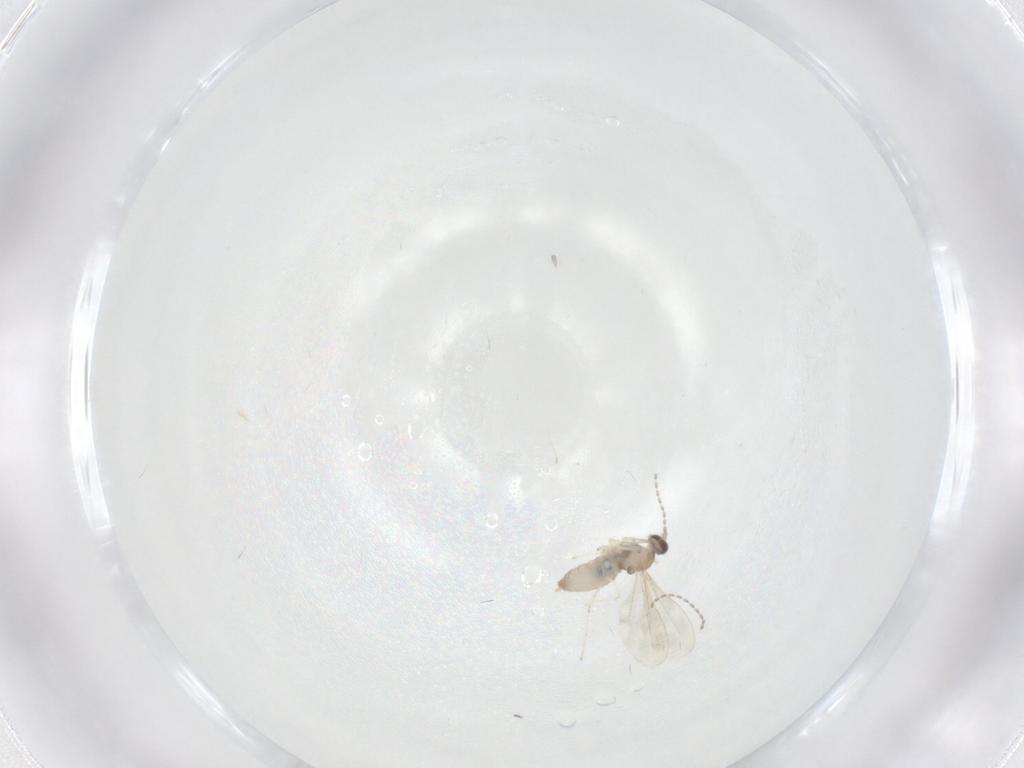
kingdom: Animalia
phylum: Arthropoda
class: Insecta
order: Diptera
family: Cecidomyiidae
